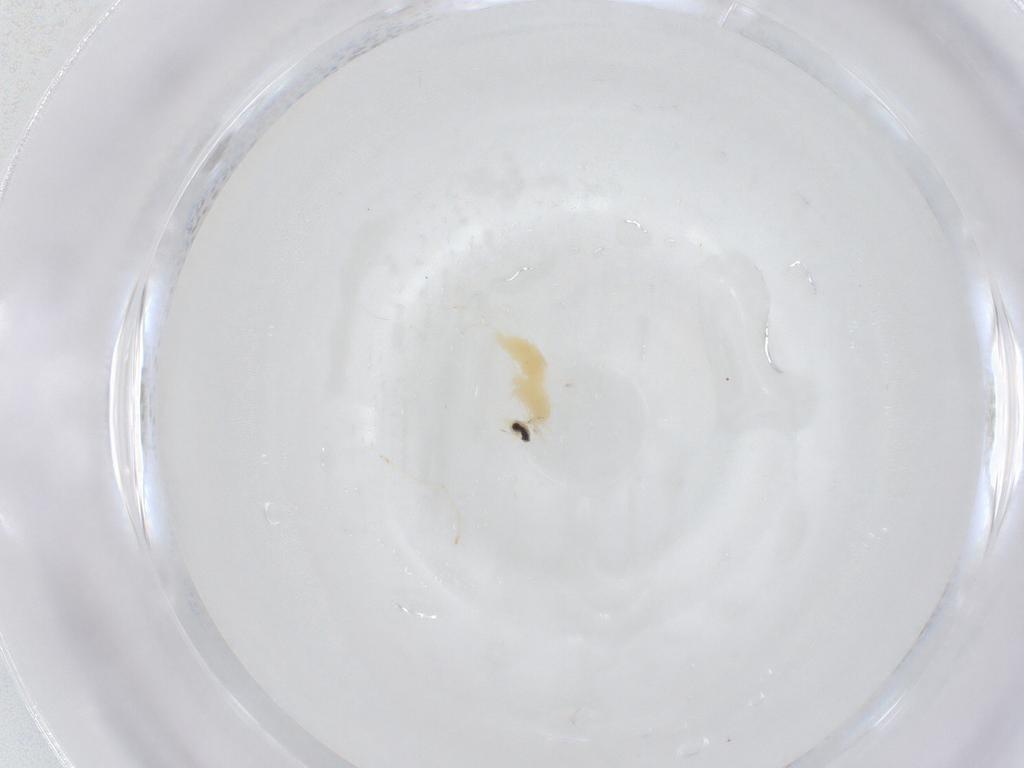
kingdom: Animalia
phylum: Arthropoda
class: Insecta
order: Diptera
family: Cecidomyiidae
